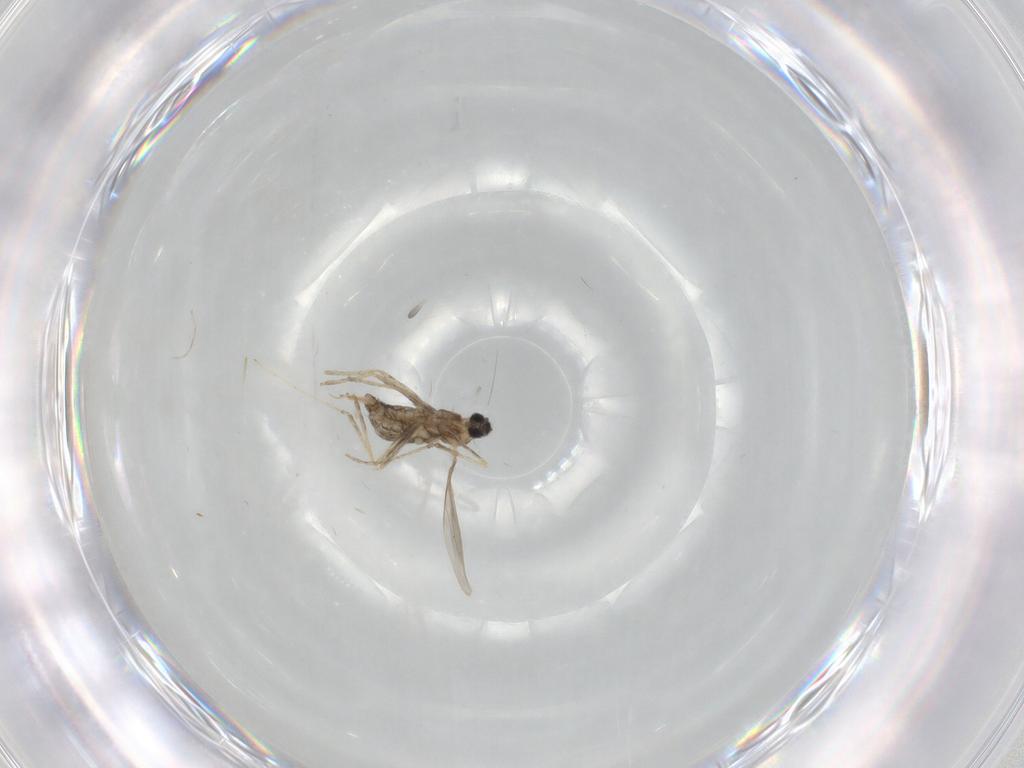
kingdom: Animalia
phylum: Arthropoda
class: Insecta
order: Diptera
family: Cecidomyiidae
